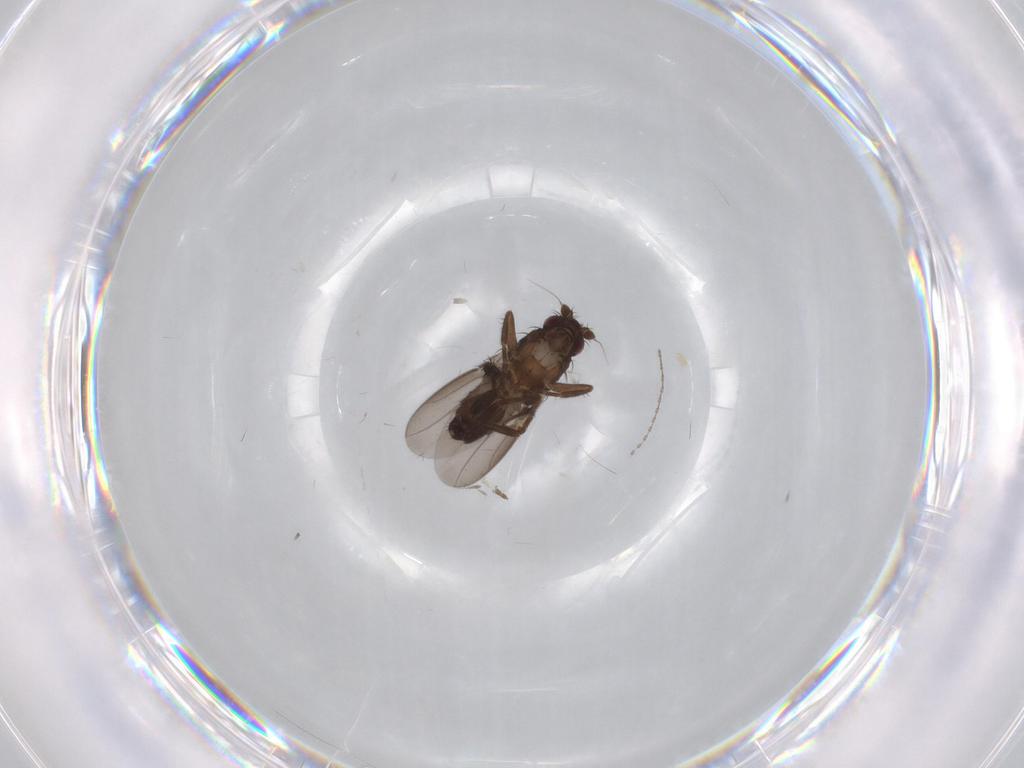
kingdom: Animalia
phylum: Arthropoda
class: Insecta
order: Diptera
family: Sphaeroceridae
